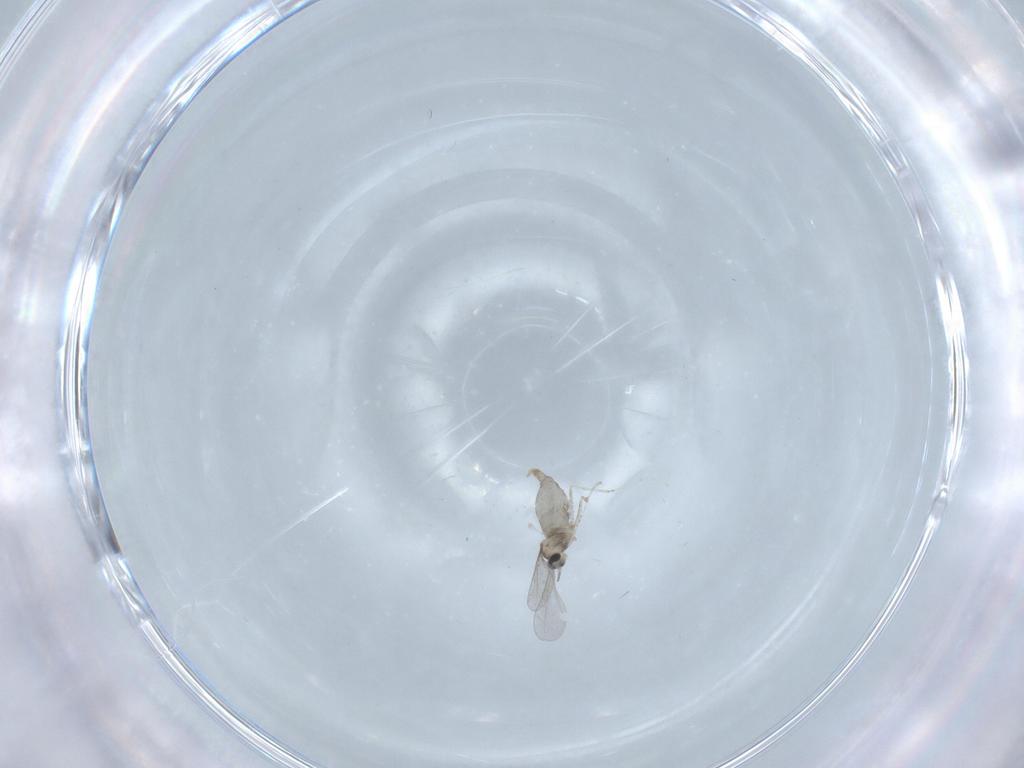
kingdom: Animalia
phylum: Arthropoda
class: Insecta
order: Diptera
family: Cecidomyiidae
